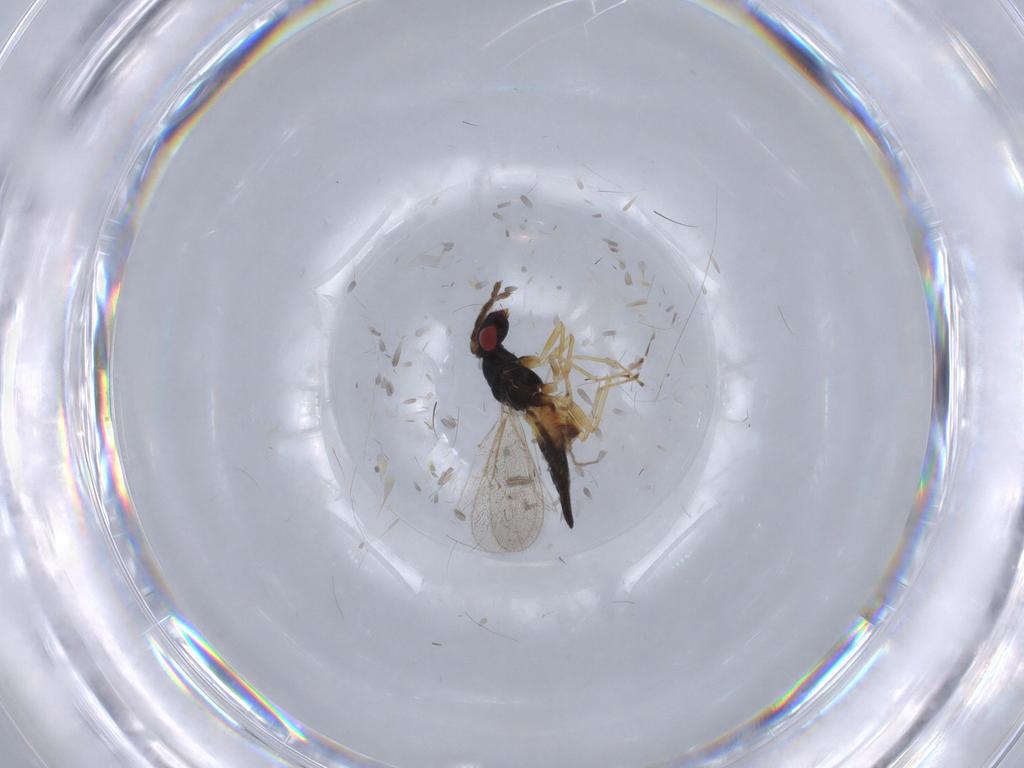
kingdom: Animalia
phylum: Arthropoda
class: Insecta
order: Hymenoptera
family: Eulophidae
